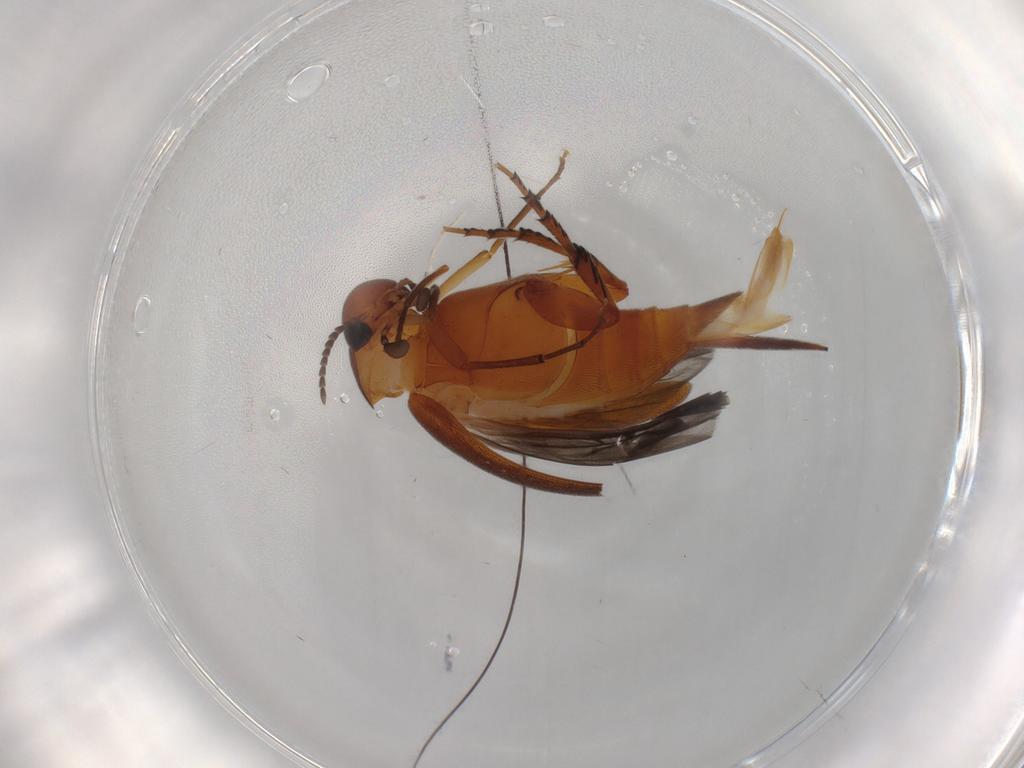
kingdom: Animalia
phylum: Arthropoda
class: Insecta
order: Coleoptera
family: Mordellidae
